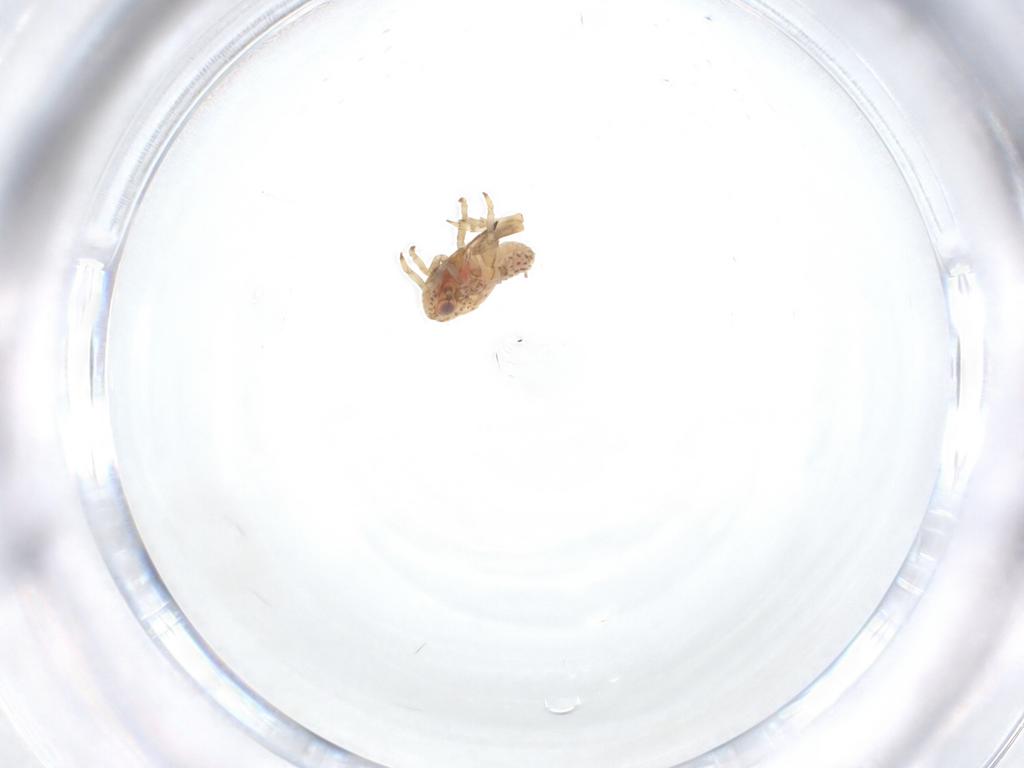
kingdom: Animalia
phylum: Arthropoda
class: Insecta
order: Hemiptera
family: Tropiduchidae
